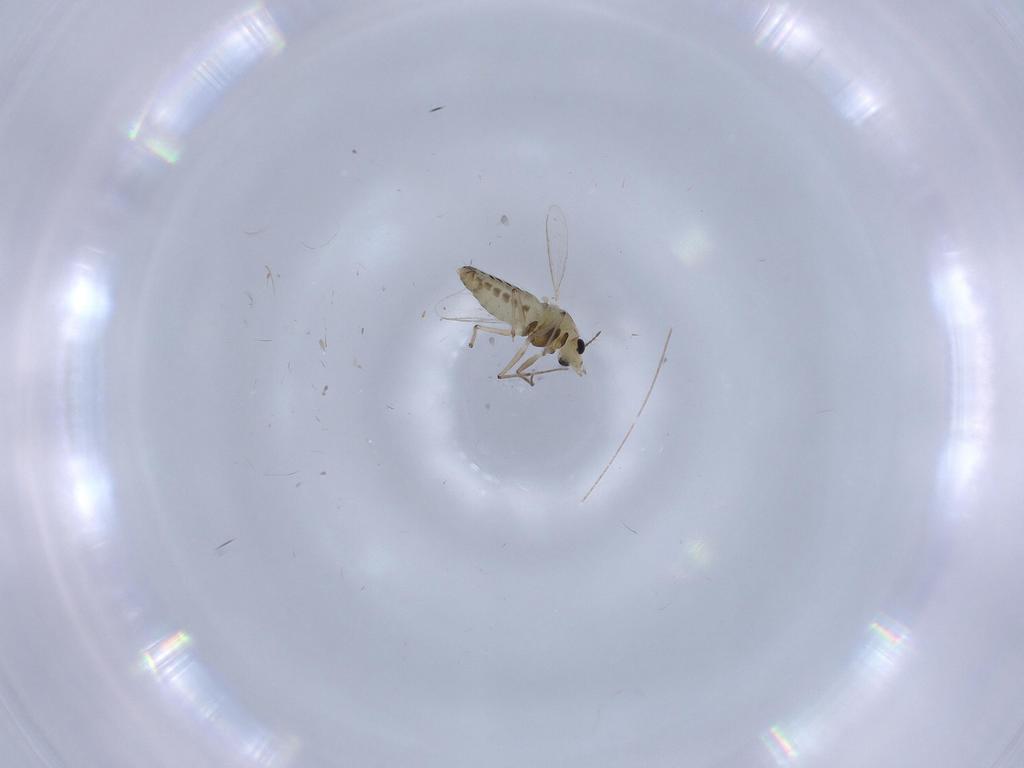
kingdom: Animalia
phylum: Arthropoda
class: Insecta
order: Diptera
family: Chironomidae
